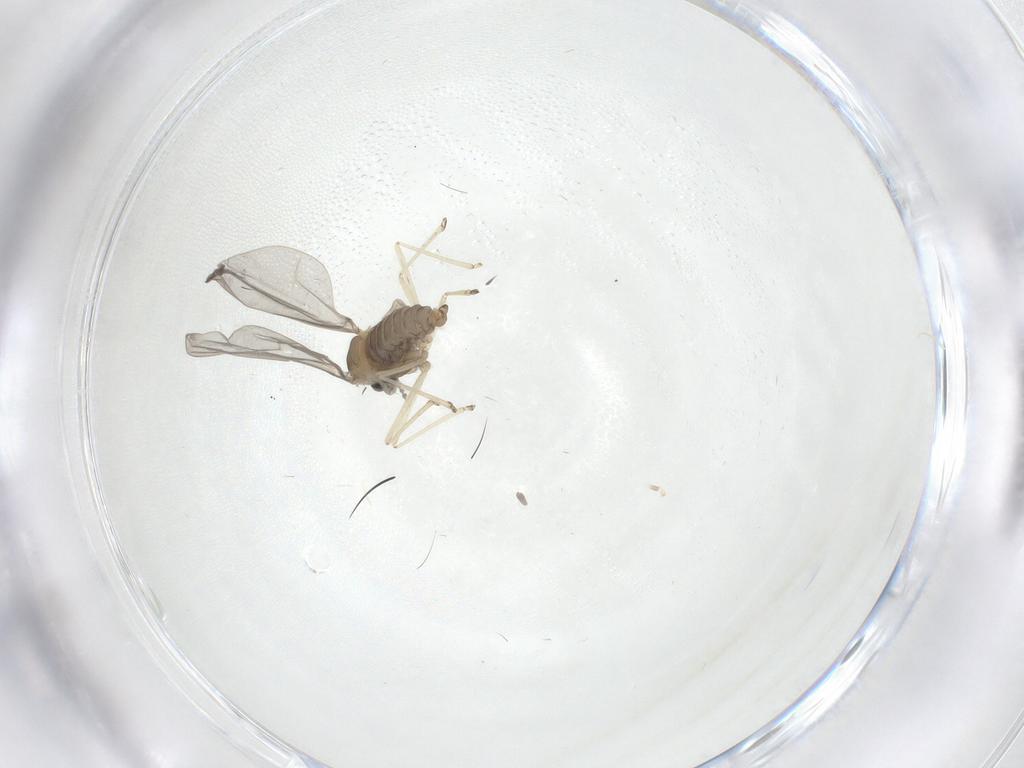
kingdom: Animalia
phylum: Arthropoda
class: Insecta
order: Diptera
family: Cecidomyiidae
